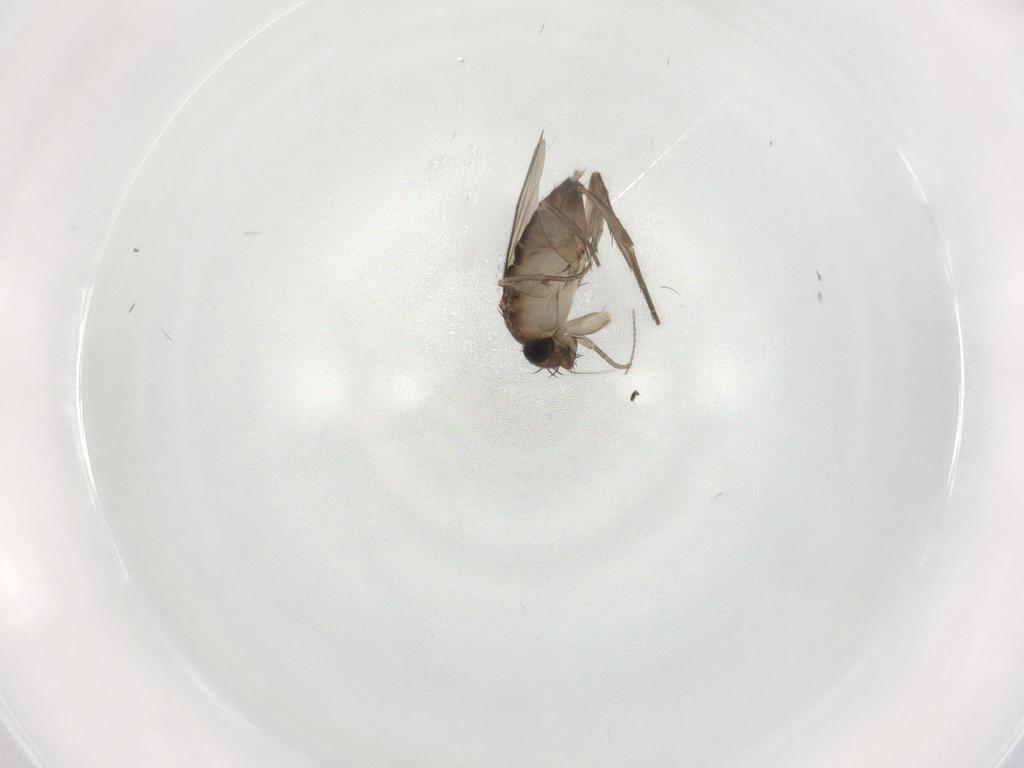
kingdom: Animalia
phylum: Arthropoda
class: Insecta
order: Diptera
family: Phoridae
